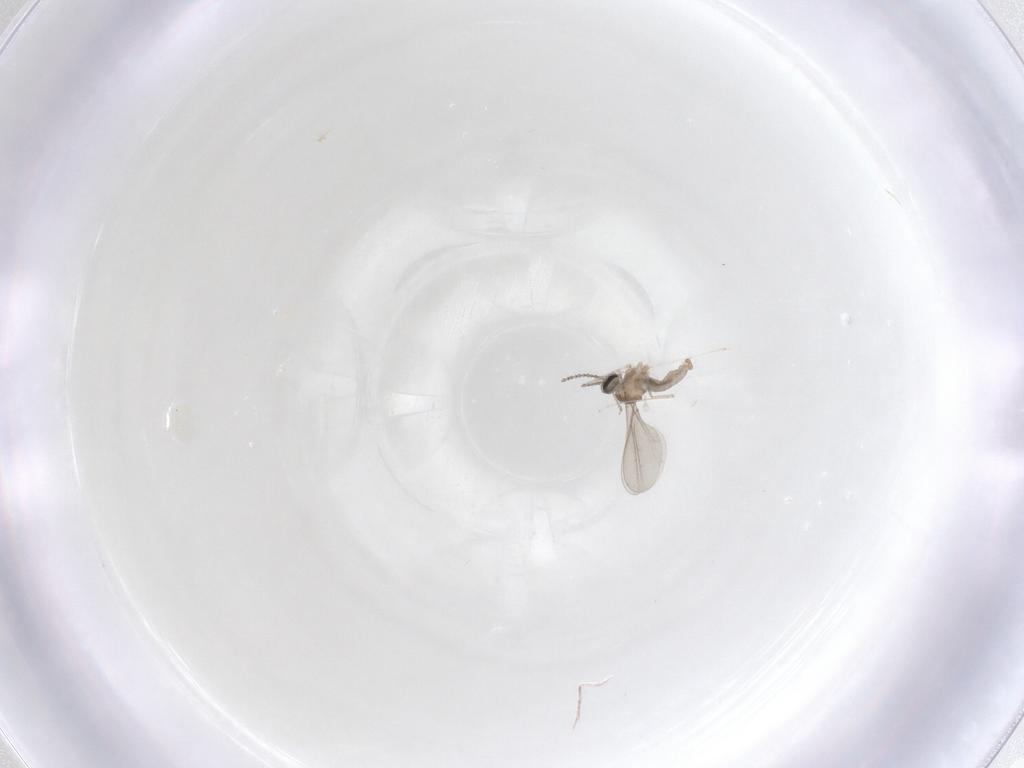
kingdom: Animalia
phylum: Arthropoda
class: Insecta
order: Diptera
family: Cecidomyiidae
